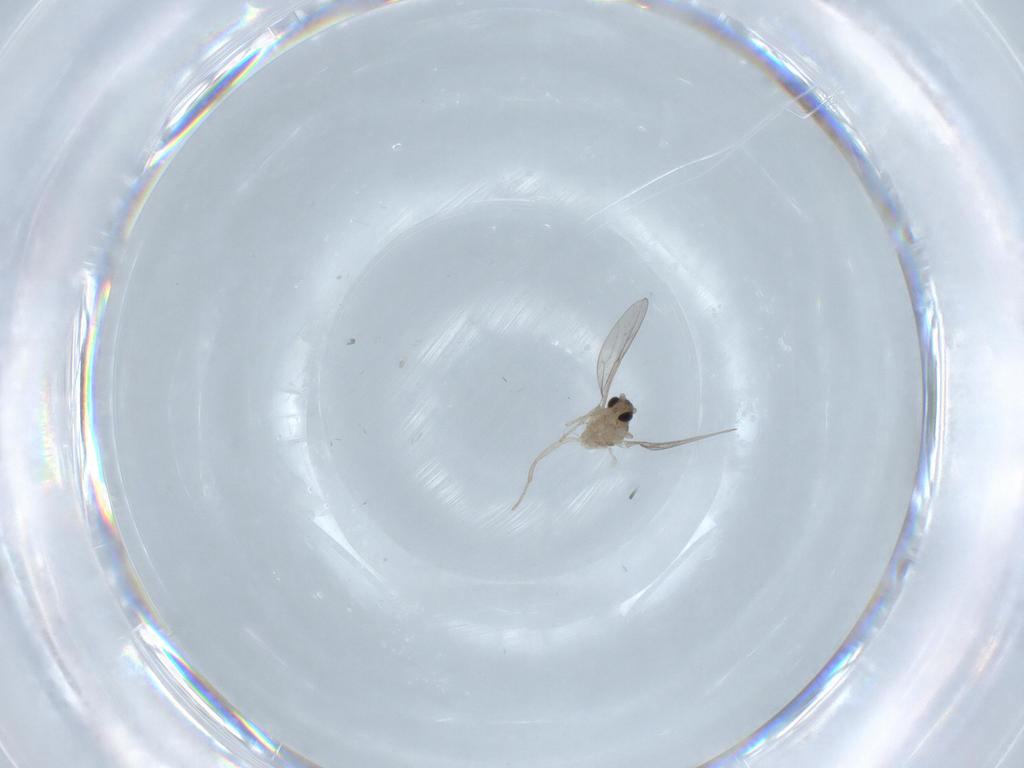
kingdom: Animalia
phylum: Arthropoda
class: Insecta
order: Diptera
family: Cecidomyiidae
